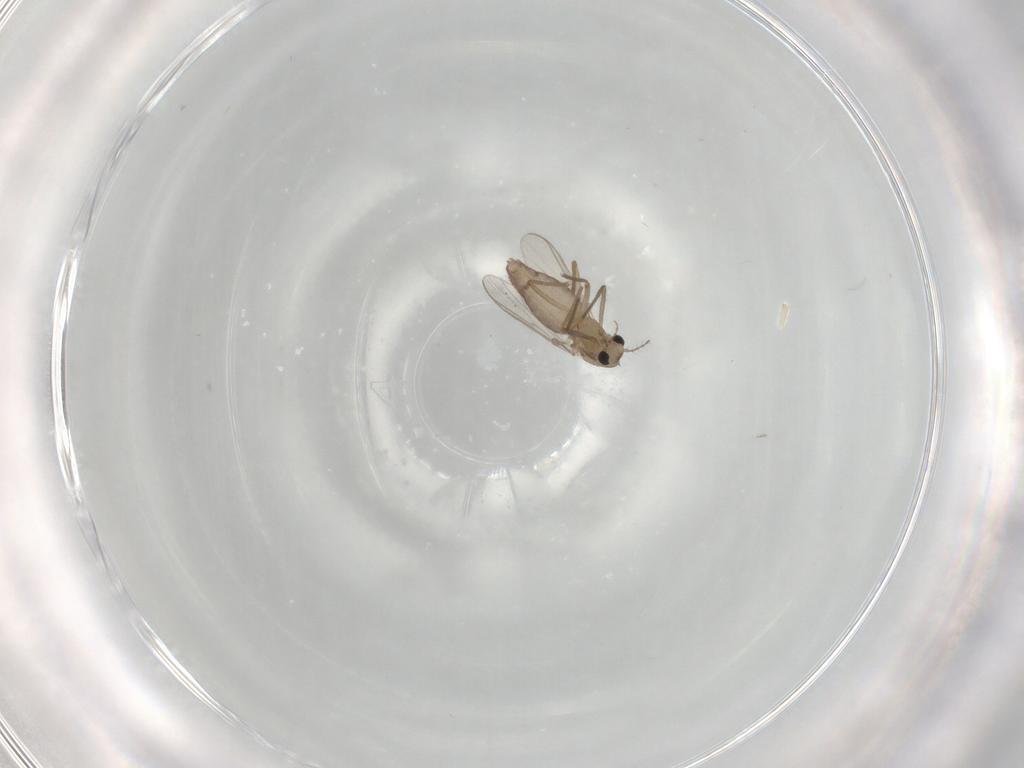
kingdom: Animalia
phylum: Arthropoda
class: Insecta
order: Diptera
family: Chironomidae
